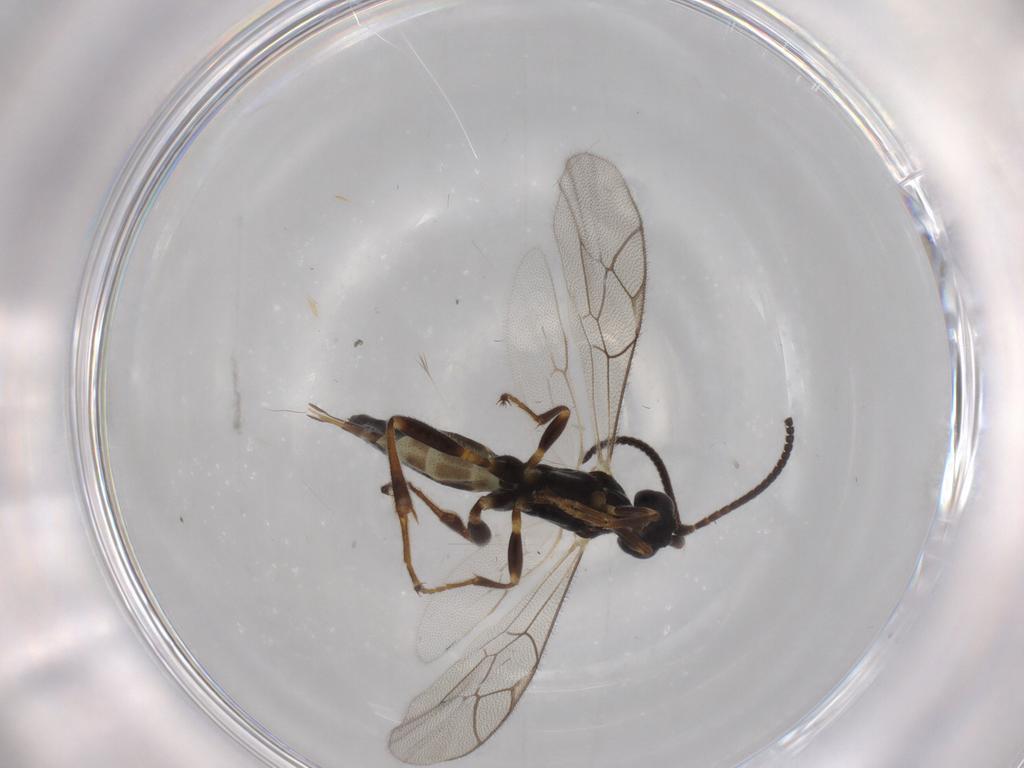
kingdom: Animalia
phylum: Arthropoda
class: Insecta
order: Hymenoptera
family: Ichneumonidae
